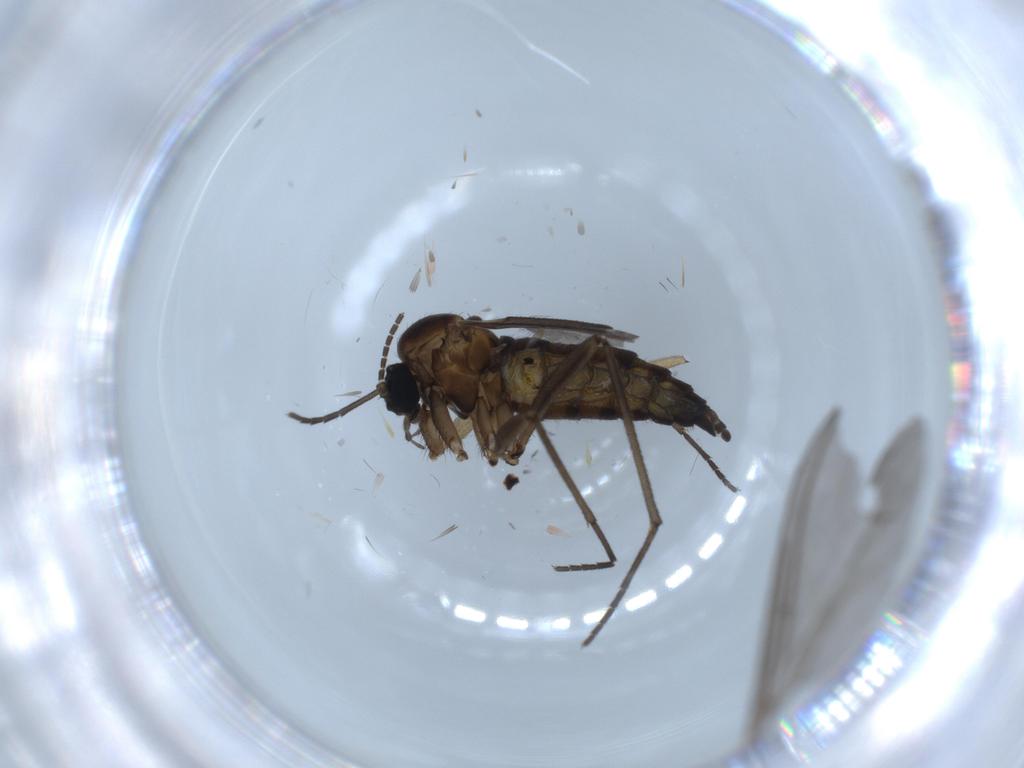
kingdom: Animalia
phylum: Arthropoda
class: Insecta
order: Diptera
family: Sciaridae
